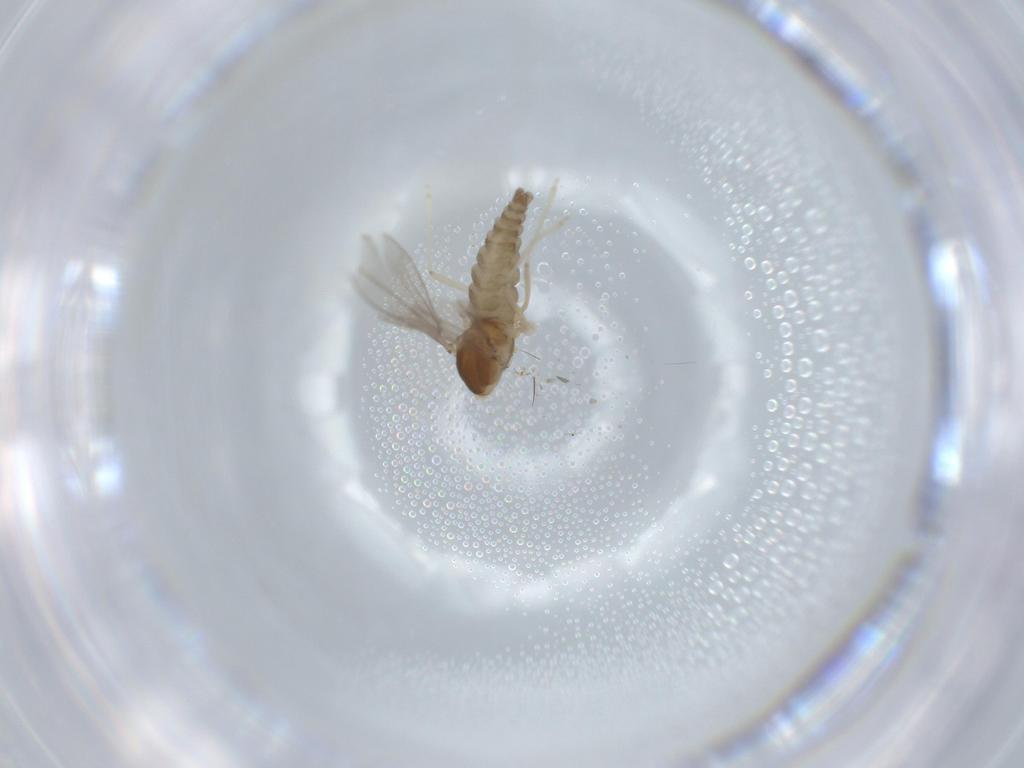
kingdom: Animalia
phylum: Arthropoda
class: Insecta
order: Diptera
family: Cecidomyiidae
